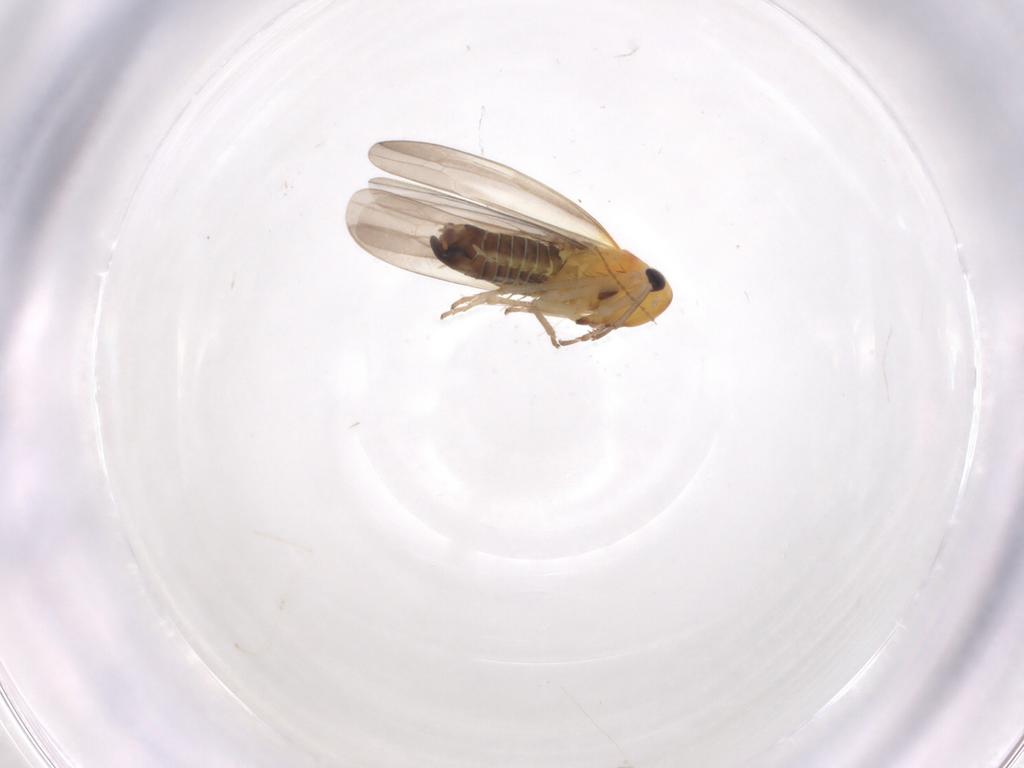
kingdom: Animalia
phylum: Arthropoda
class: Insecta
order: Hemiptera
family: Cicadellidae
